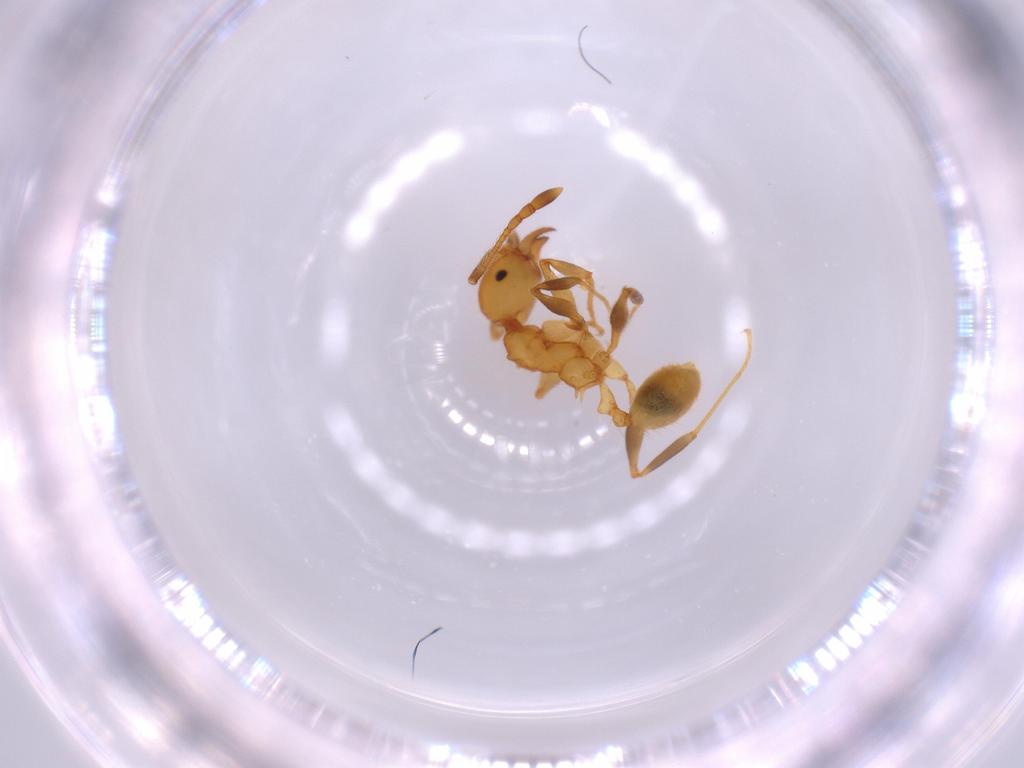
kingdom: Animalia
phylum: Arthropoda
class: Insecta
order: Hymenoptera
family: Formicidae
